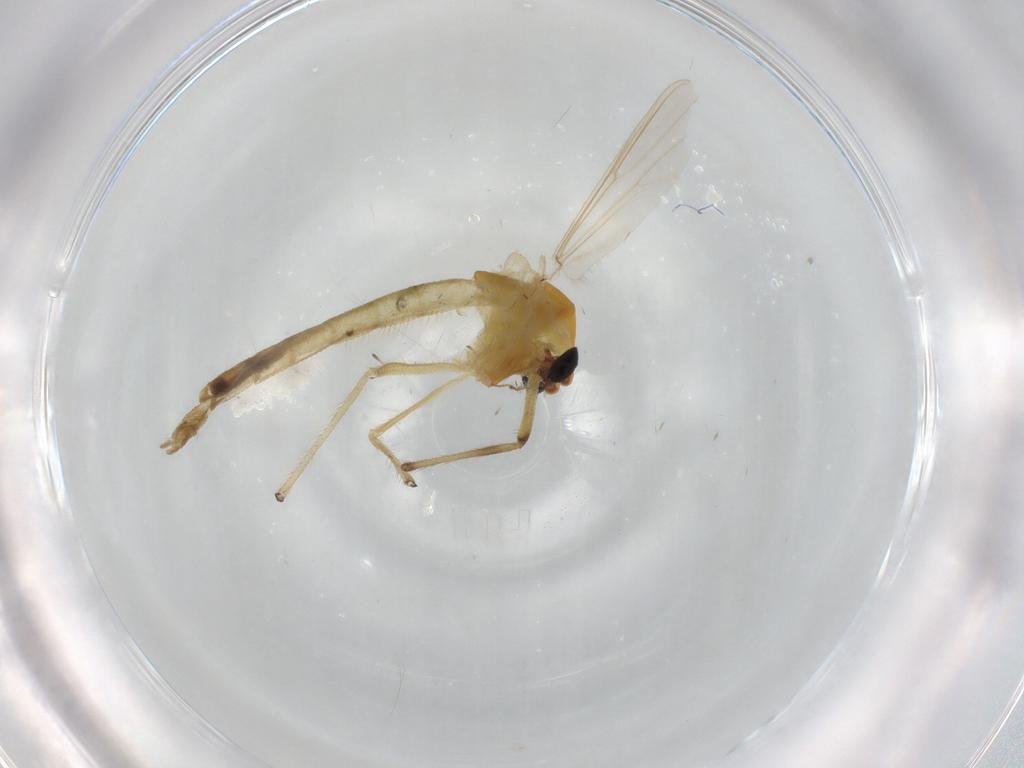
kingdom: Animalia
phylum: Arthropoda
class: Insecta
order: Diptera
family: Chironomidae
